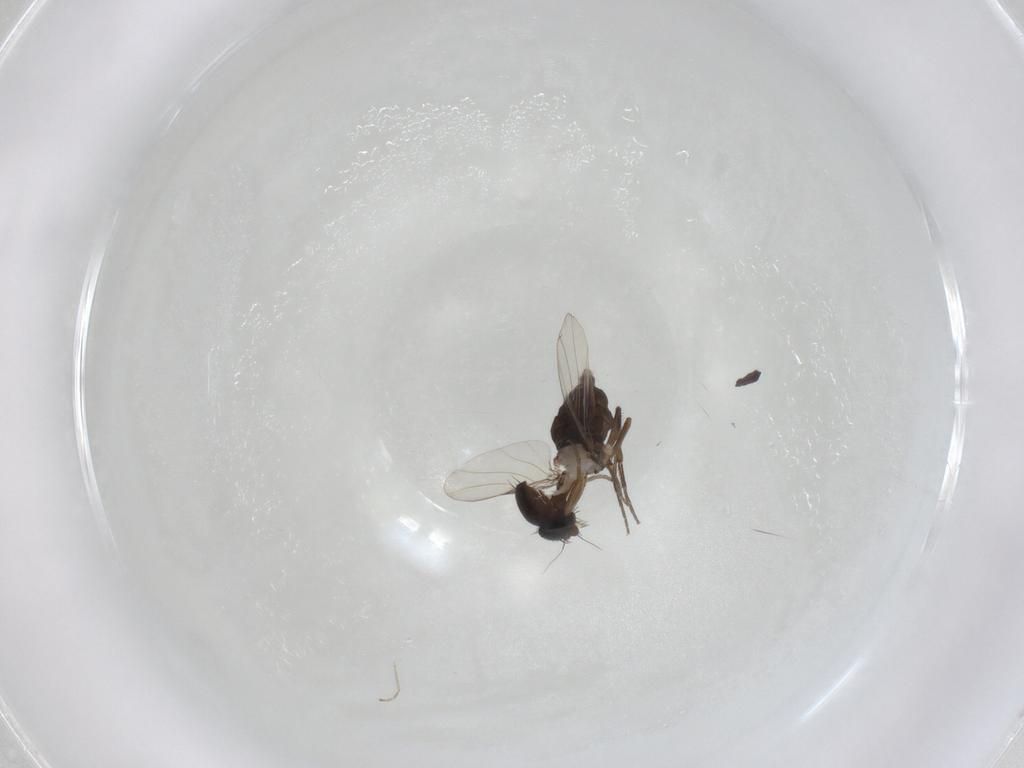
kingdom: Animalia
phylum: Arthropoda
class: Insecta
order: Diptera
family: Phoridae
